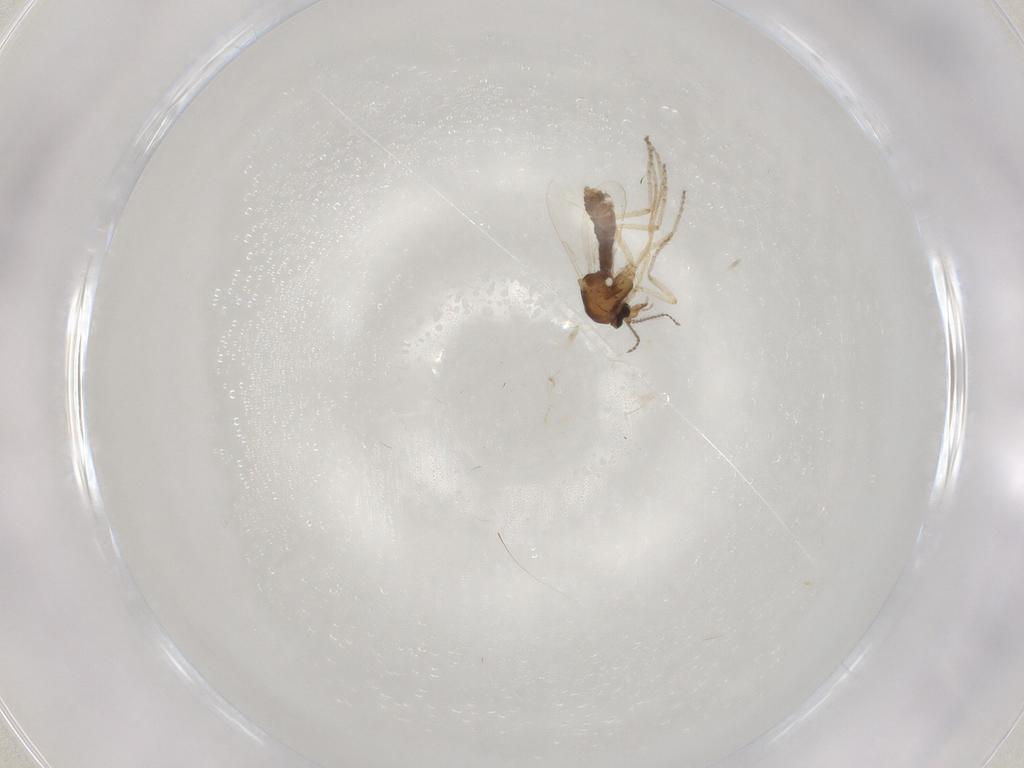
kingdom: Animalia
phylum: Arthropoda
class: Insecta
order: Diptera
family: Ceratopogonidae
